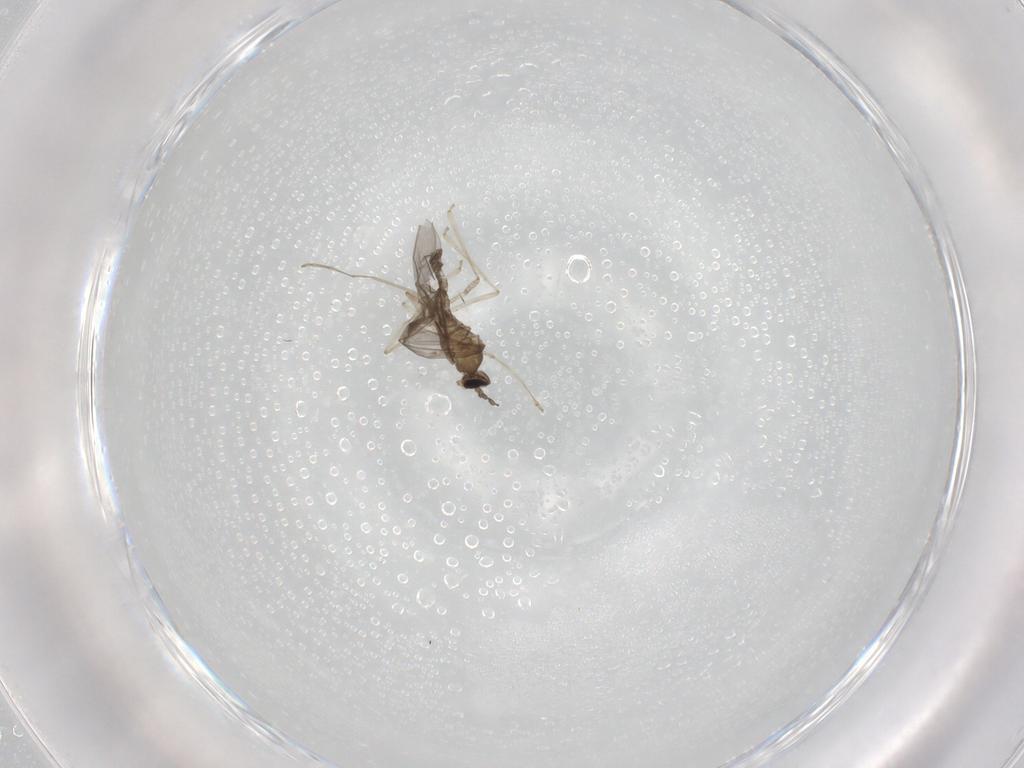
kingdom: Animalia
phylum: Arthropoda
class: Insecta
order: Diptera
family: Cecidomyiidae
